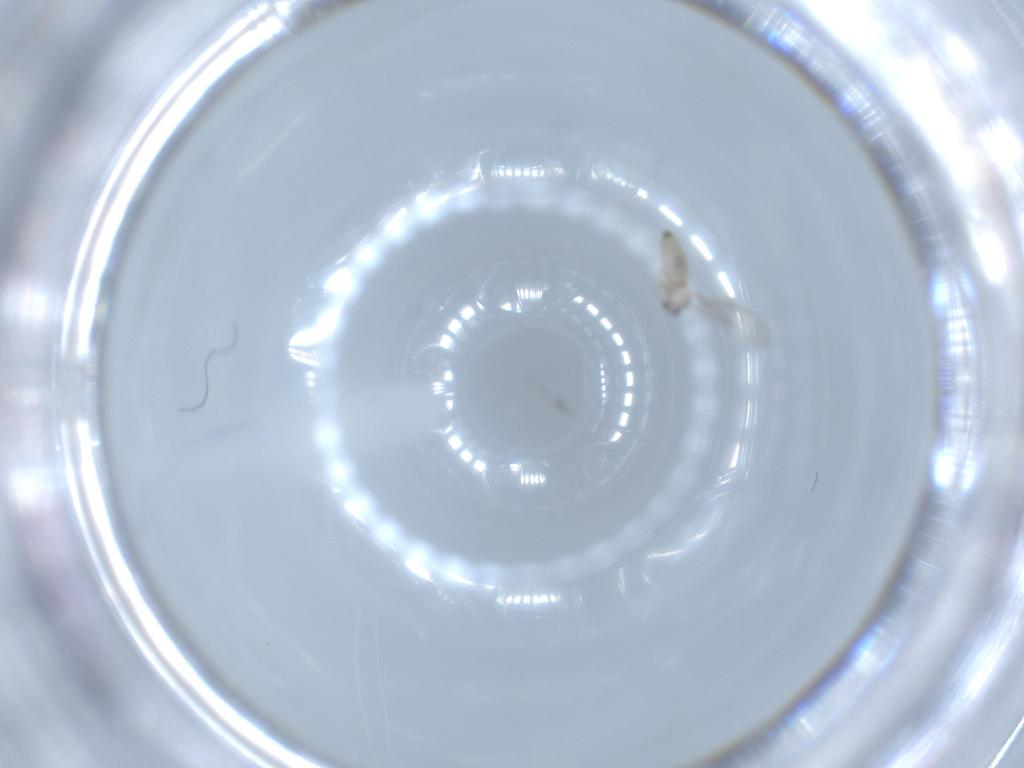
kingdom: Animalia
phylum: Arthropoda
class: Insecta
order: Diptera
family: Cecidomyiidae
